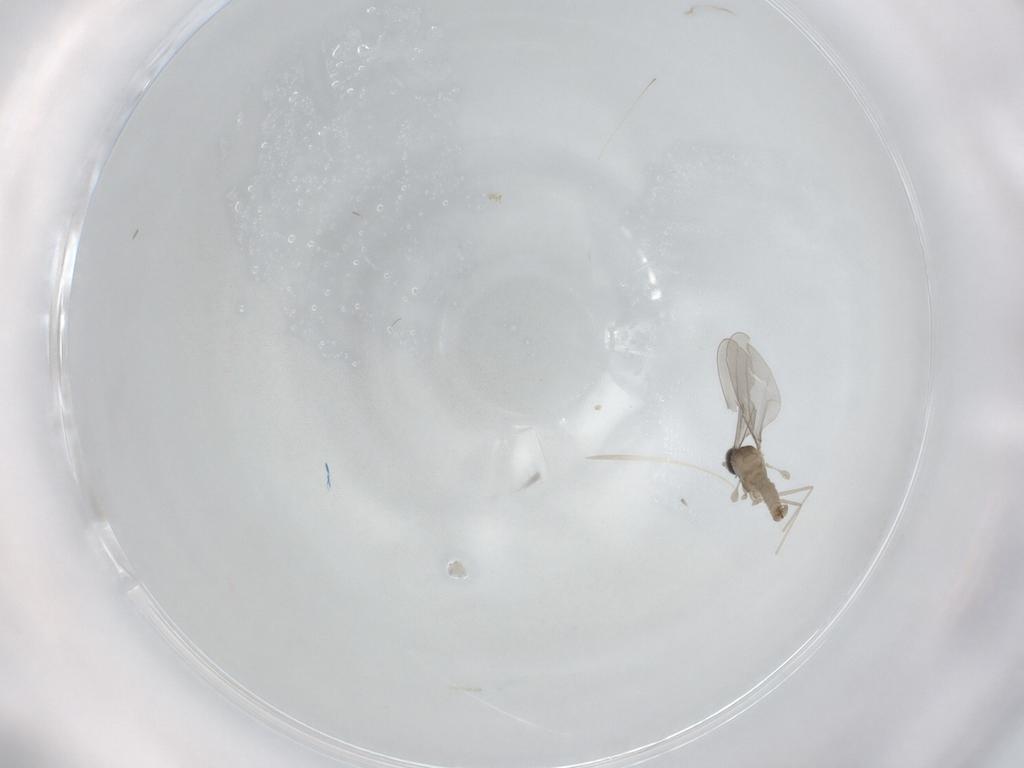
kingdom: Animalia
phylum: Arthropoda
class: Insecta
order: Diptera
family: Cecidomyiidae
